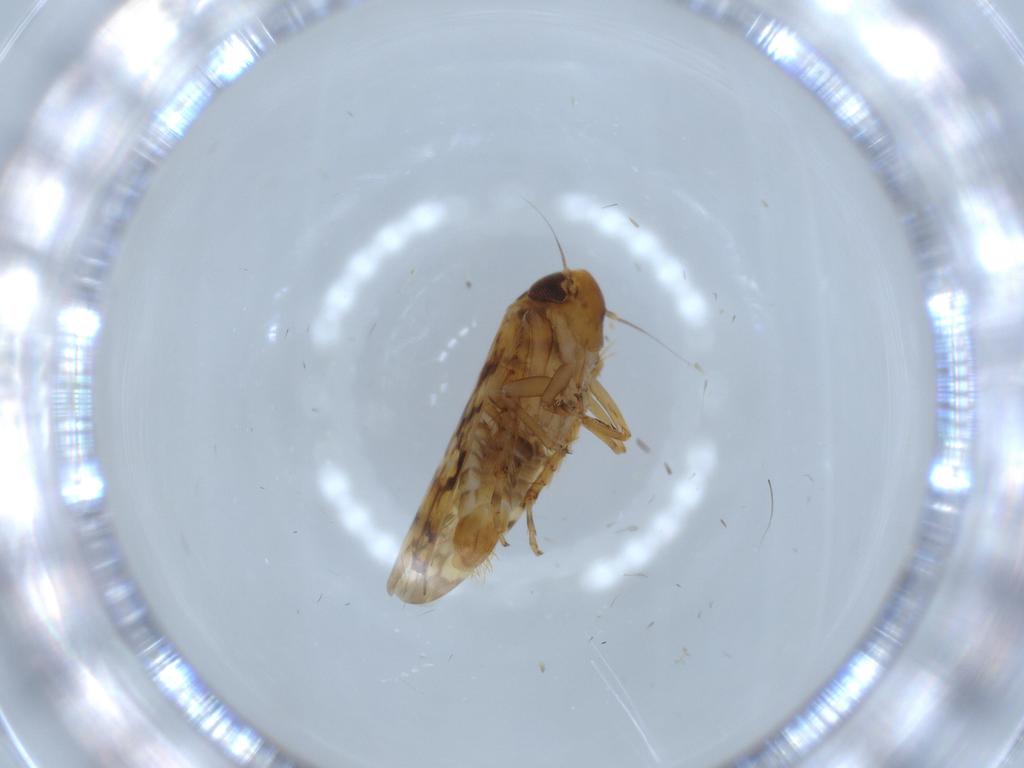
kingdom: Animalia
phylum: Arthropoda
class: Insecta
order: Hemiptera
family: Cicadellidae
